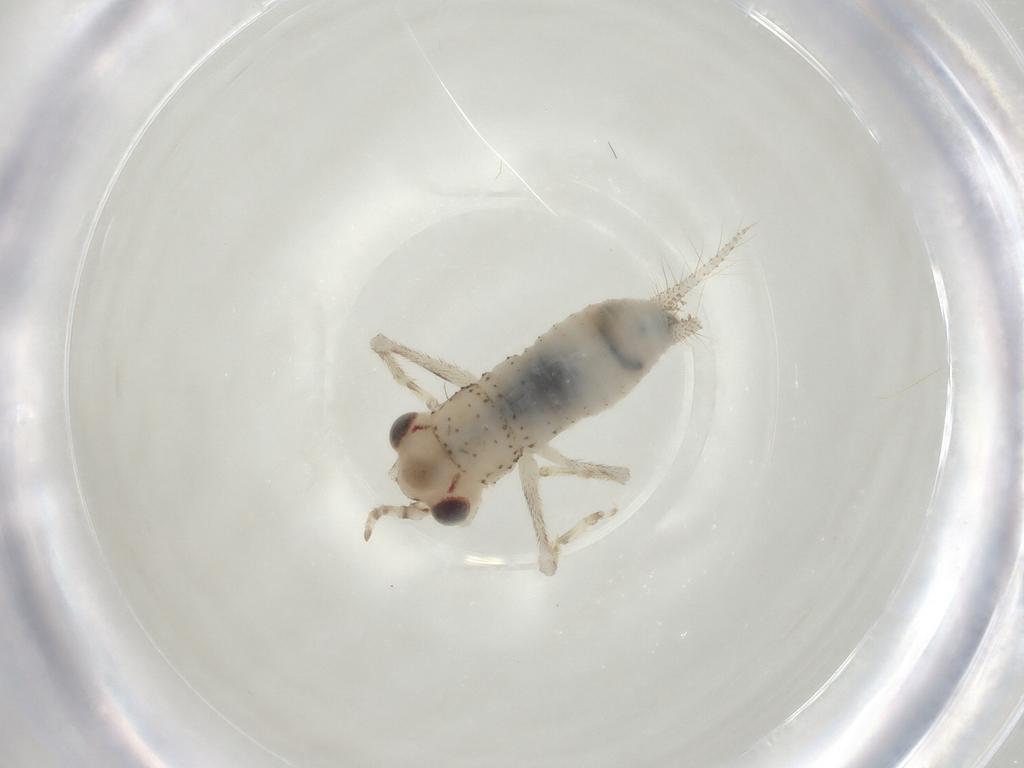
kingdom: Animalia
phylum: Arthropoda
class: Insecta
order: Orthoptera
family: Trigonidiidae
